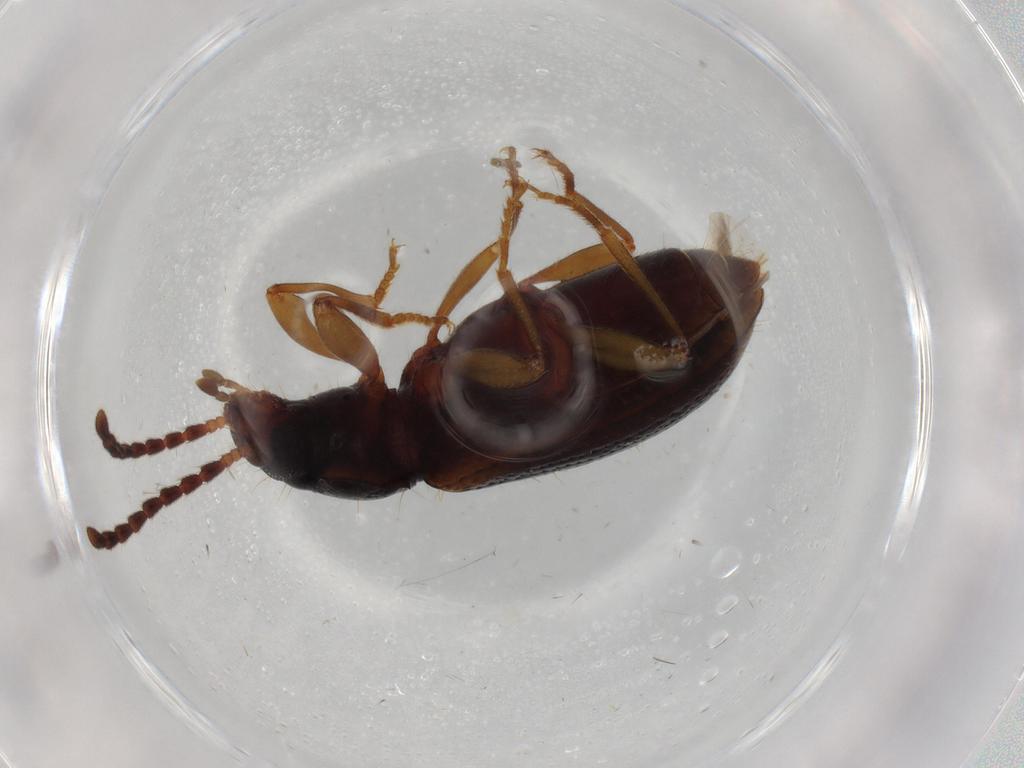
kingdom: Animalia
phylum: Arthropoda
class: Insecta
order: Coleoptera
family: Tenebrionidae
